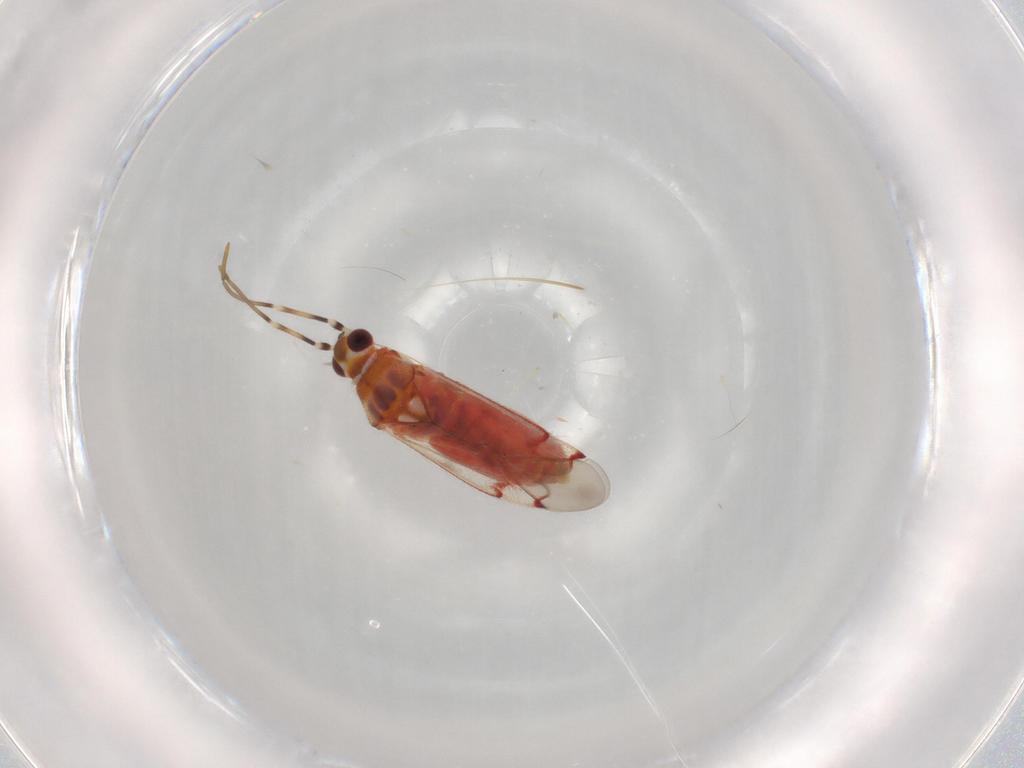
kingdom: Animalia
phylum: Arthropoda
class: Insecta
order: Hemiptera
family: Miridae
